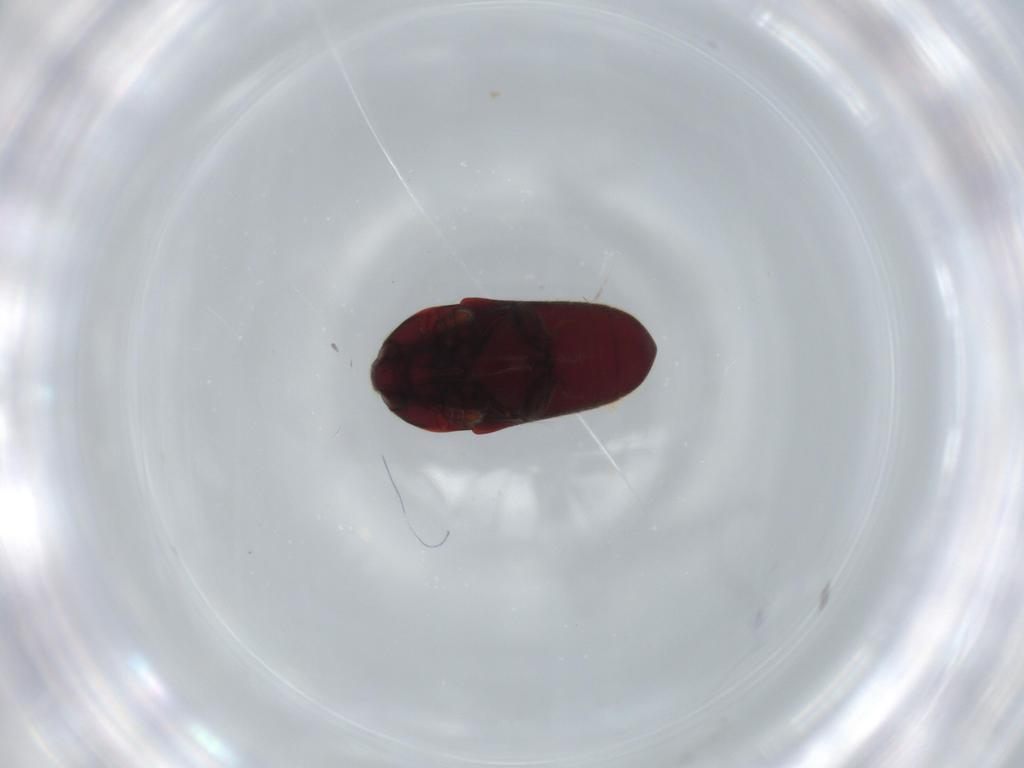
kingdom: Animalia
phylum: Arthropoda
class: Insecta
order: Coleoptera
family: Throscidae
